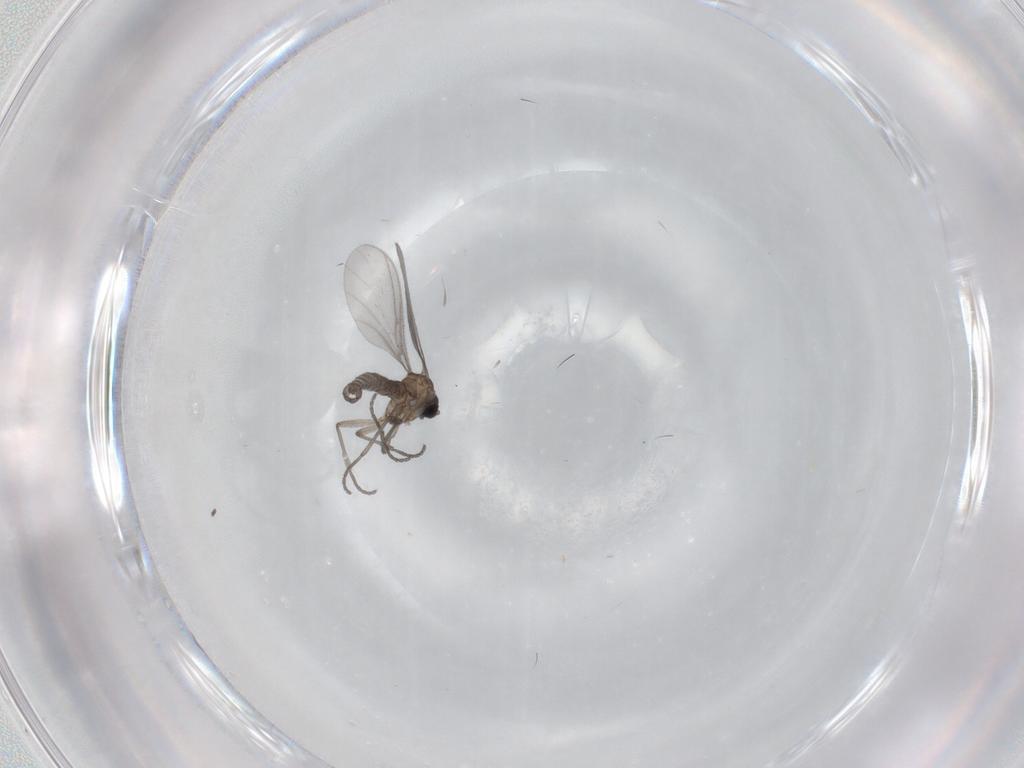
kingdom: Animalia
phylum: Arthropoda
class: Insecta
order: Diptera
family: Sciaridae
